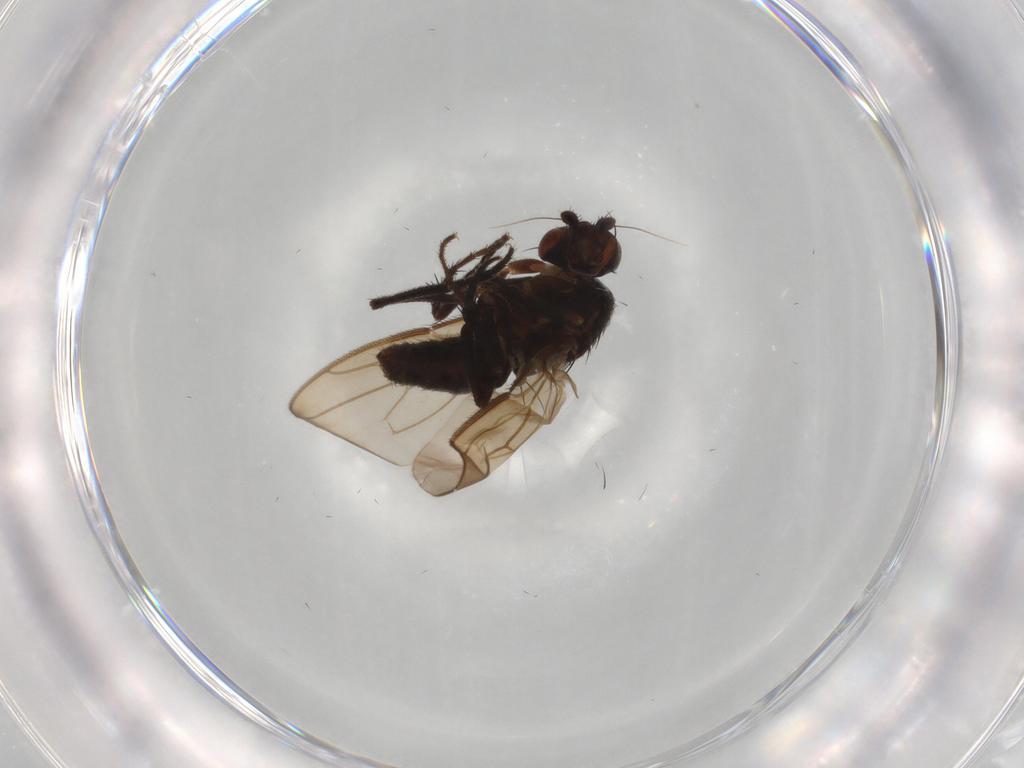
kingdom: Animalia
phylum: Arthropoda
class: Insecta
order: Diptera
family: Sphaeroceridae
